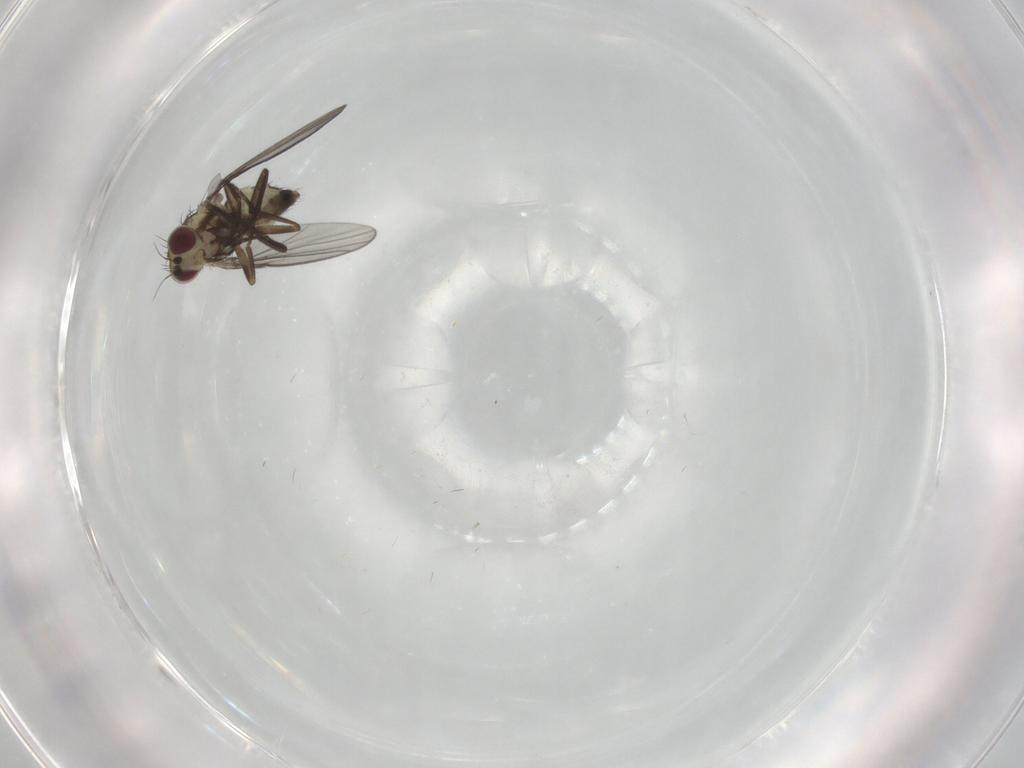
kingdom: Animalia
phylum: Arthropoda
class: Insecta
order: Diptera
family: Agromyzidae
